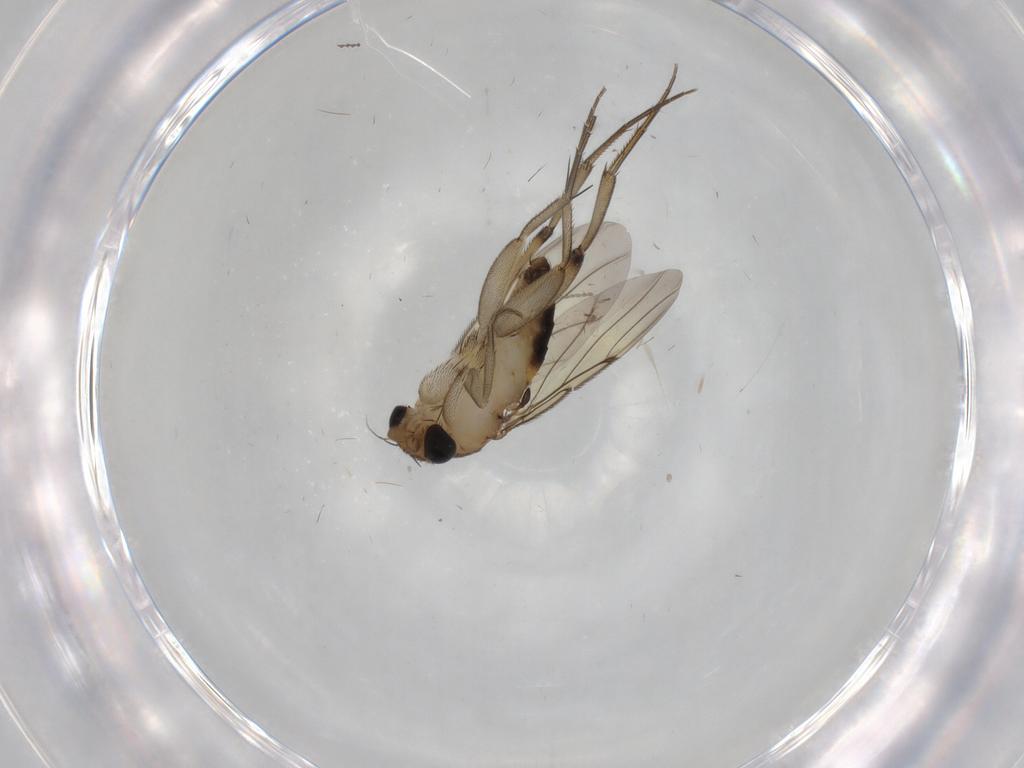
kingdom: Animalia
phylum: Arthropoda
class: Insecta
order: Diptera
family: Phoridae
